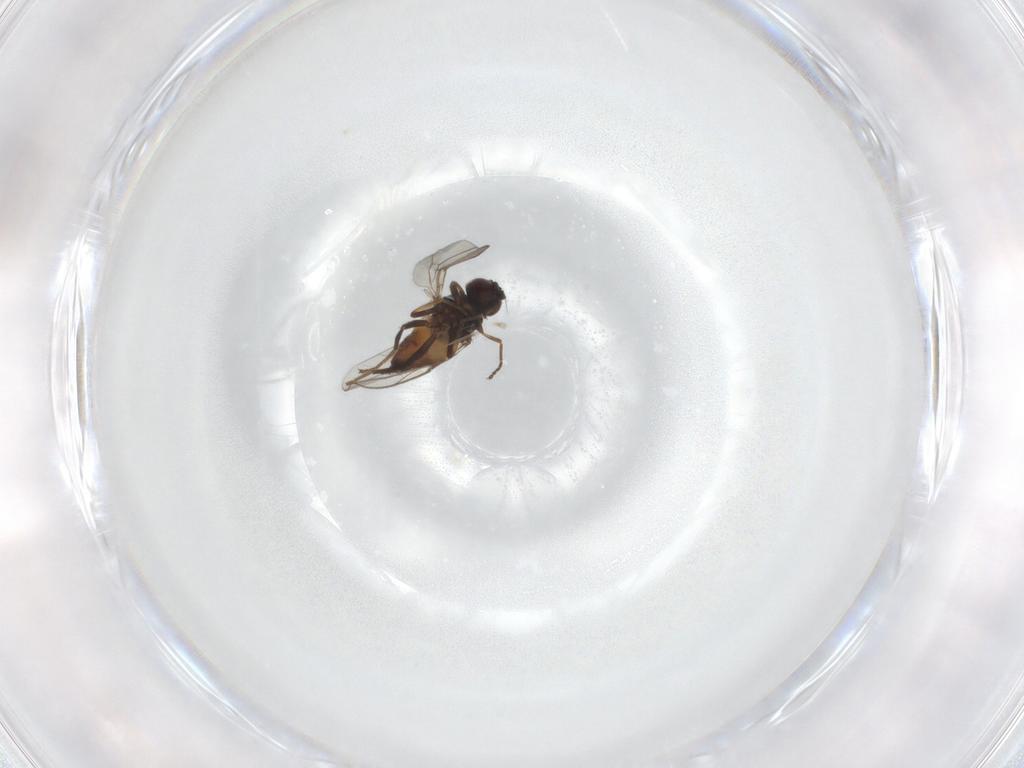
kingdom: Animalia
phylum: Arthropoda
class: Insecta
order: Diptera
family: Chloropidae
